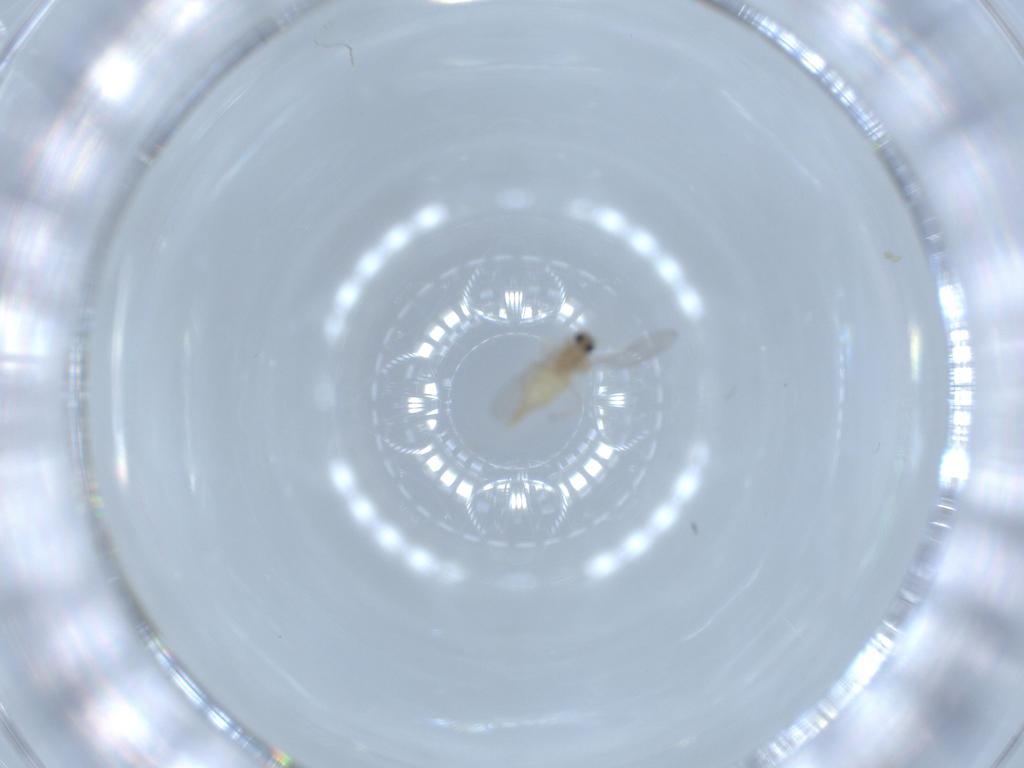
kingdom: Animalia
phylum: Arthropoda
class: Insecta
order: Diptera
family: Cecidomyiidae
